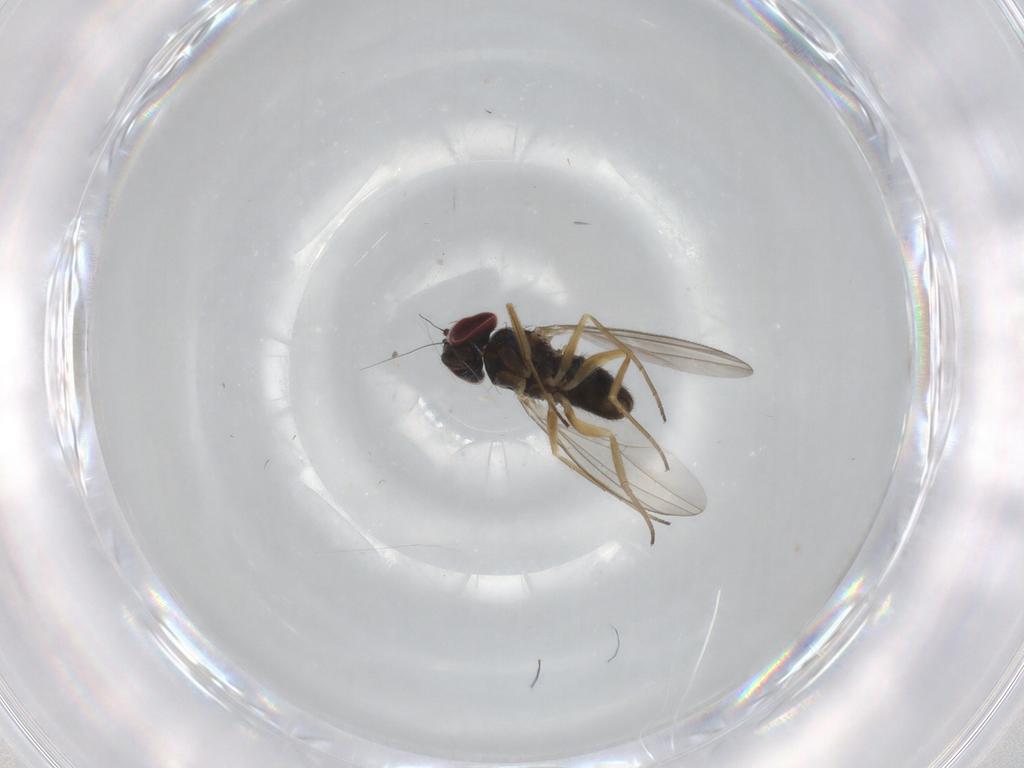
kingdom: Animalia
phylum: Arthropoda
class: Insecta
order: Diptera
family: Dolichopodidae
